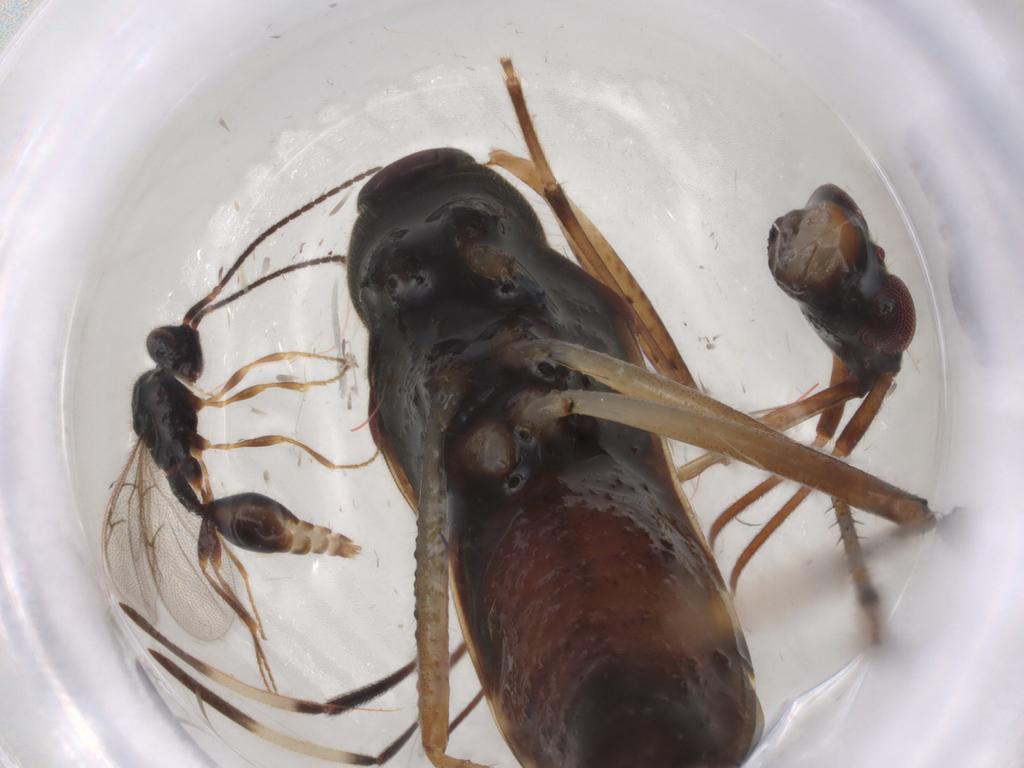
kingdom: Animalia
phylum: Arthropoda
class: Insecta
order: Hemiptera
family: Rhyparochromidae
